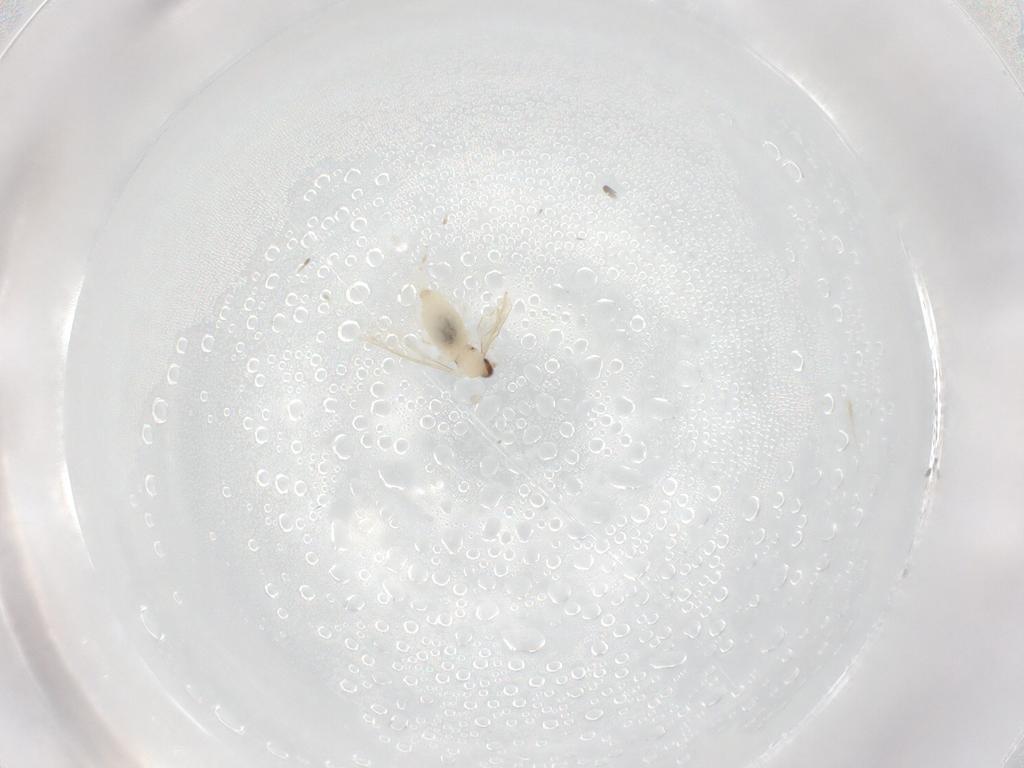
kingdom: Animalia
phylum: Arthropoda
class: Insecta
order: Diptera
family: Cecidomyiidae
